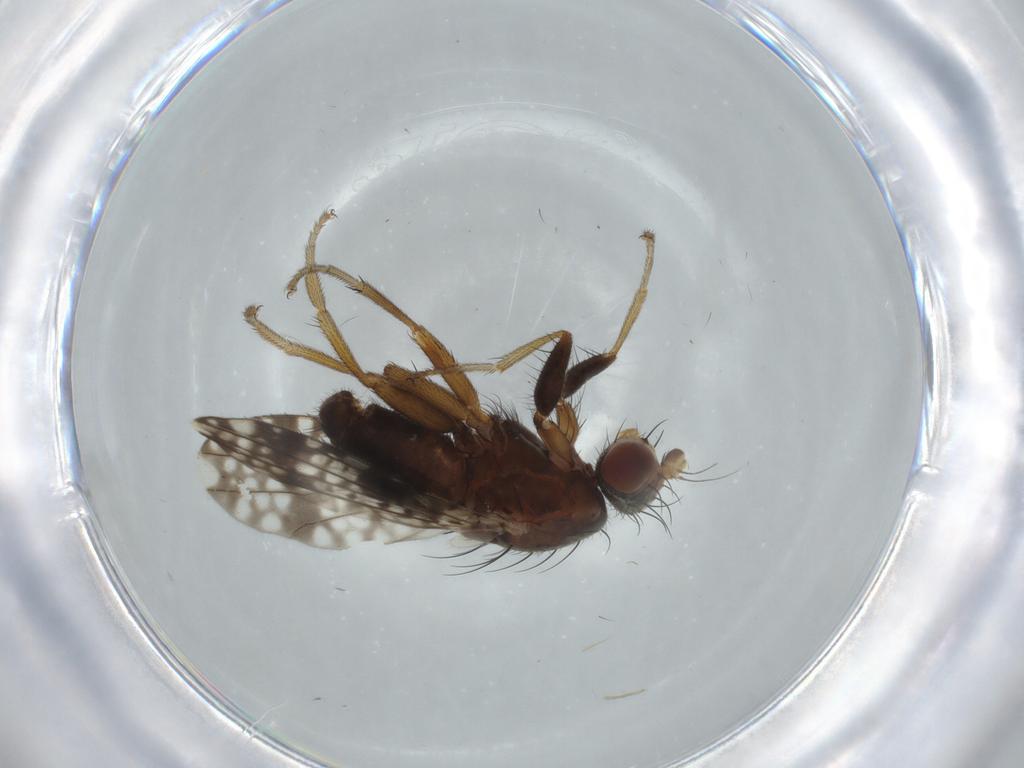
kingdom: Animalia
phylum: Arthropoda
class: Insecta
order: Diptera
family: Tephritidae
